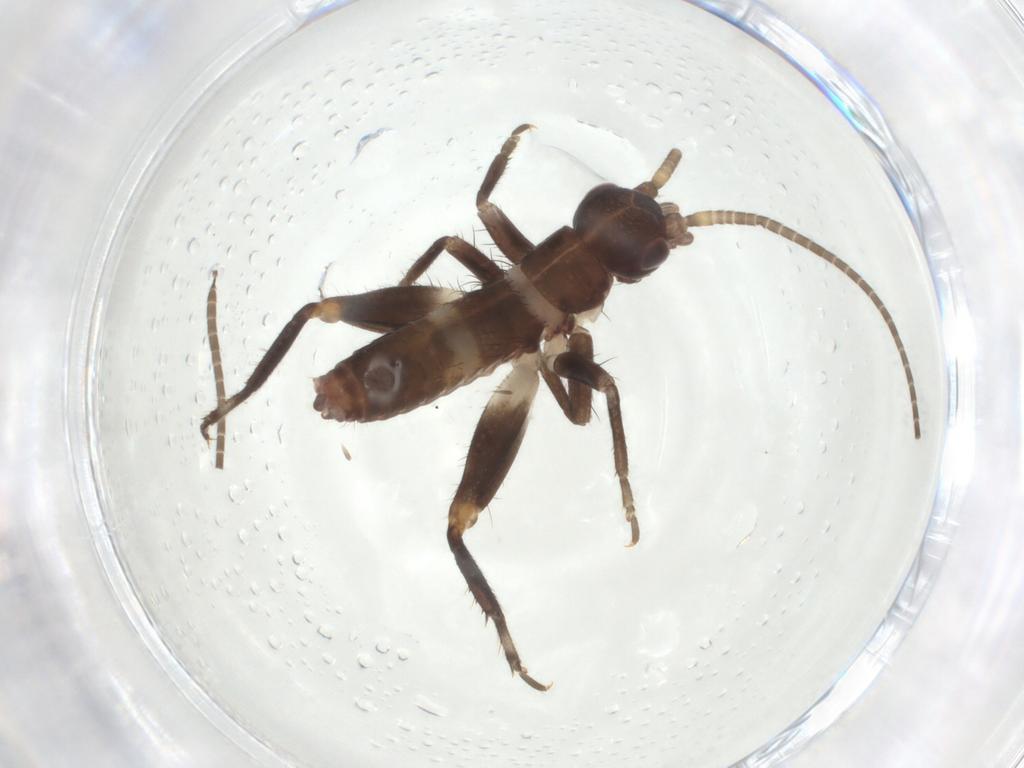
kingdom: Animalia
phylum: Arthropoda
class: Insecta
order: Orthoptera
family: Gryllidae
